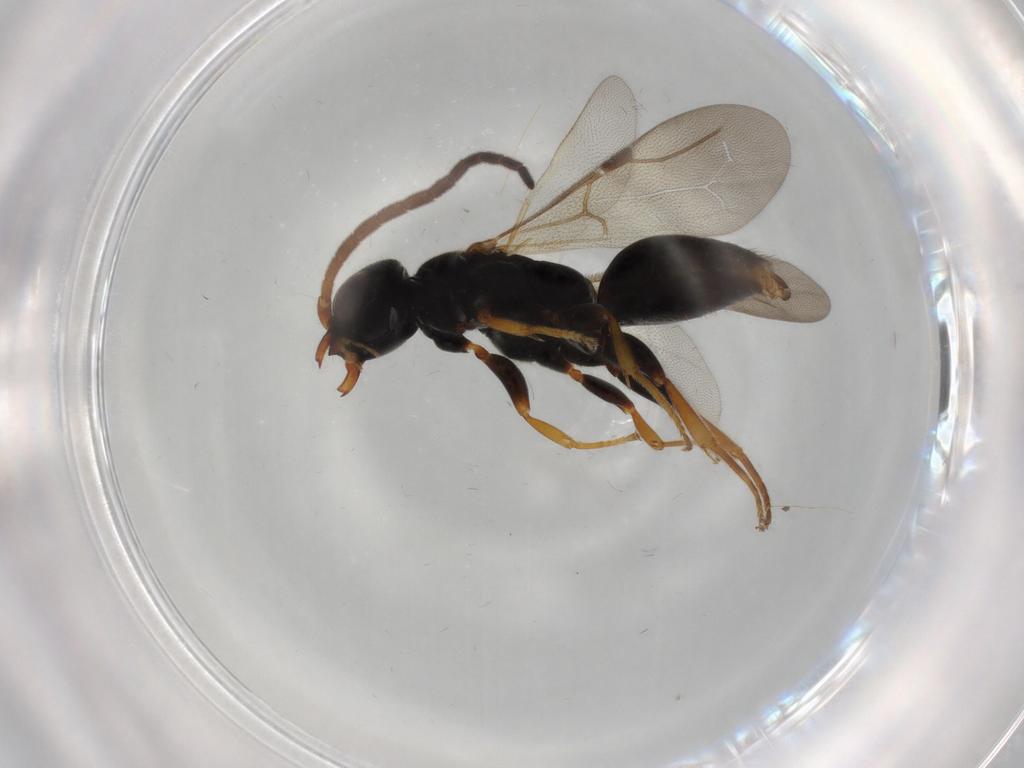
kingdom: Animalia
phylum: Arthropoda
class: Insecta
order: Hymenoptera
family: Bethylidae
